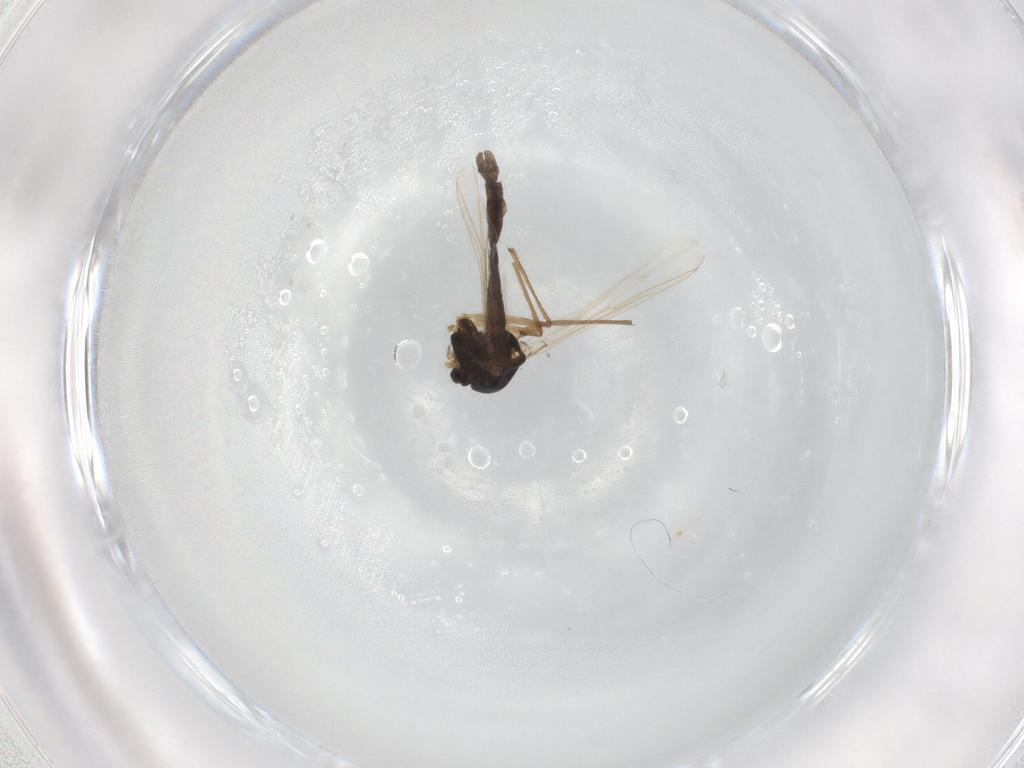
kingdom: Animalia
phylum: Arthropoda
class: Insecta
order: Diptera
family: Chironomidae
